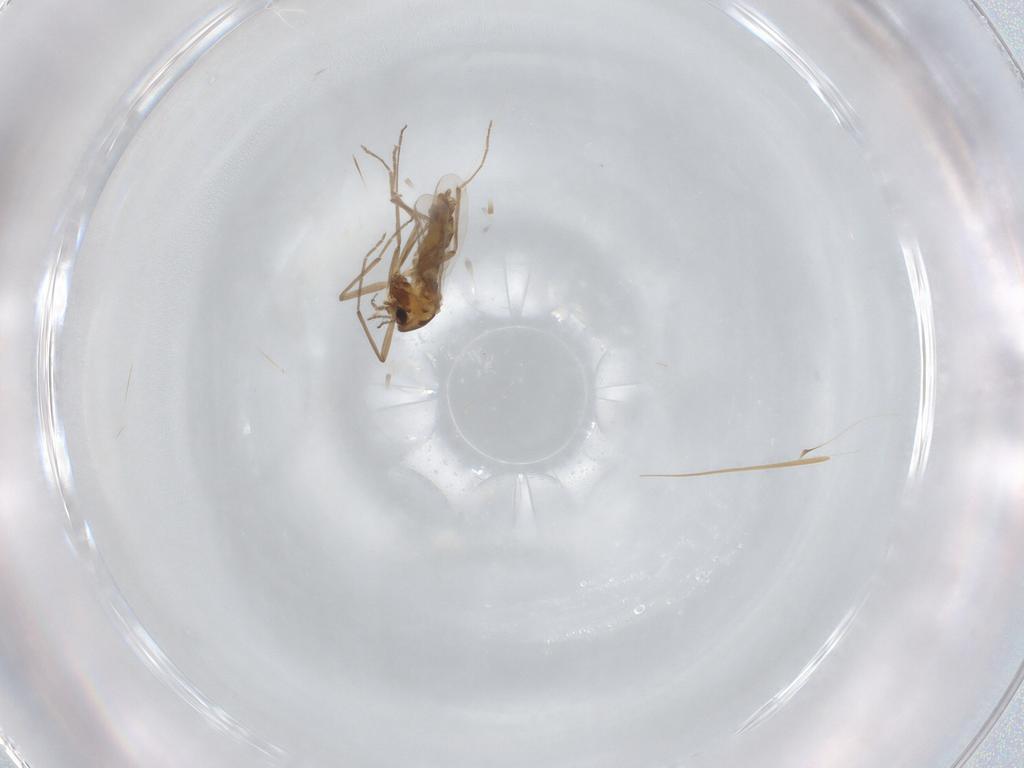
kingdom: Animalia
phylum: Arthropoda
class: Insecta
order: Diptera
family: Chironomidae
